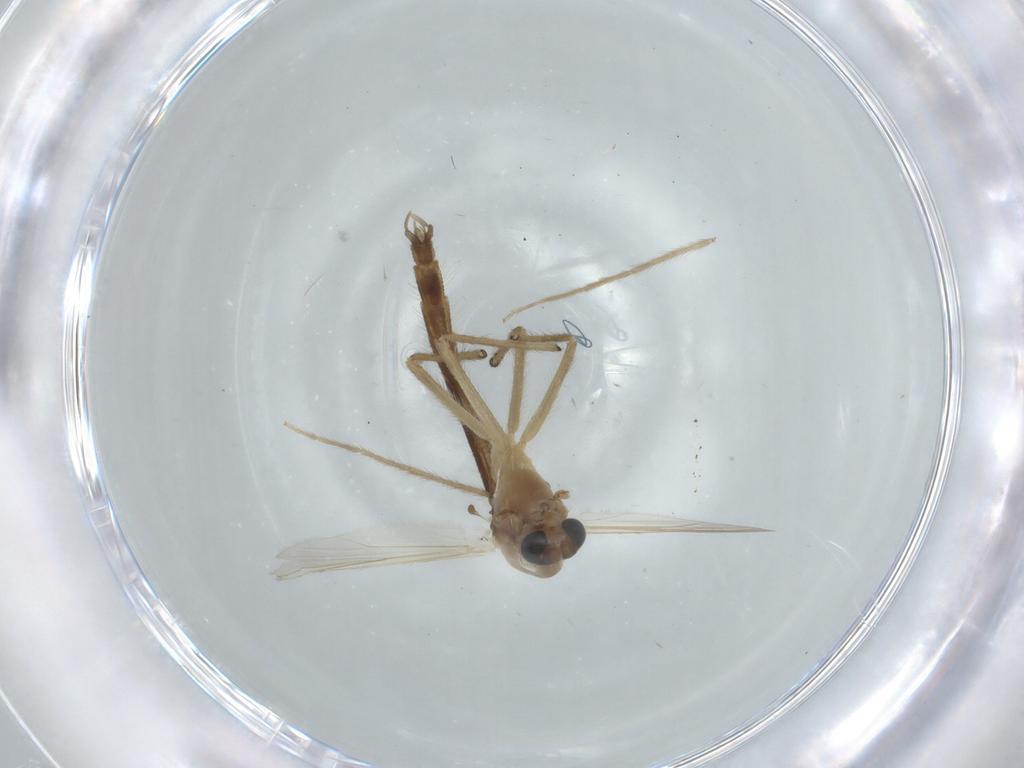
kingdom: Animalia
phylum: Arthropoda
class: Insecta
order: Diptera
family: Chironomidae
